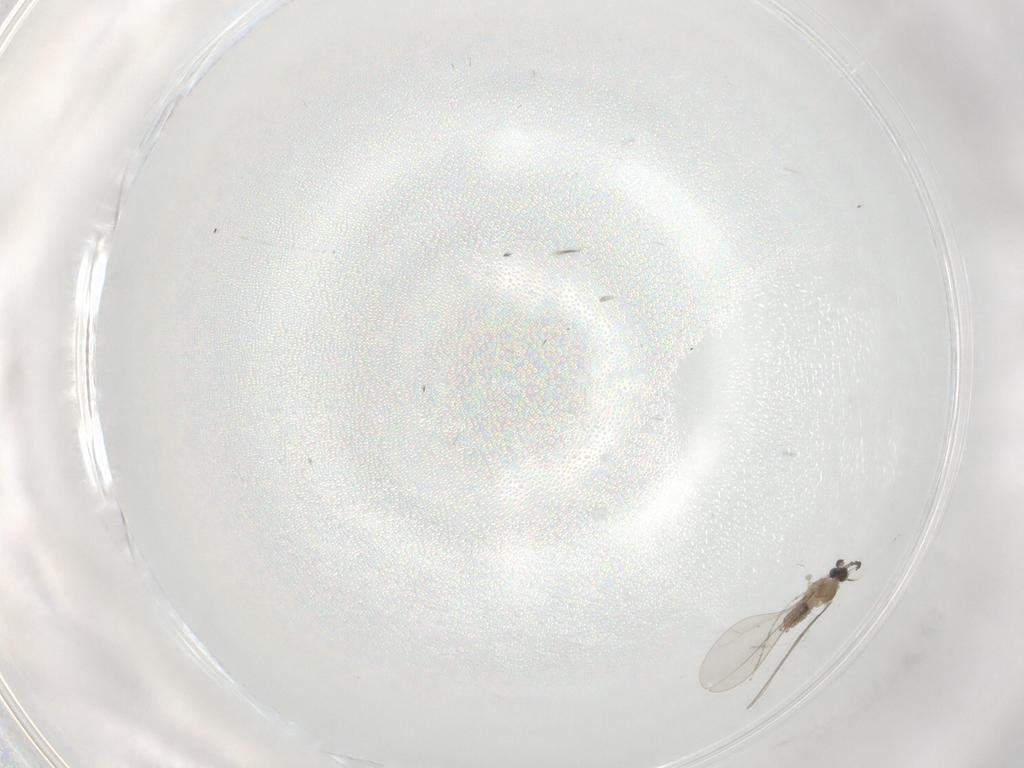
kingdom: Animalia
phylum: Arthropoda
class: Insecta
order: Diptera
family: Cecidomyiidae
